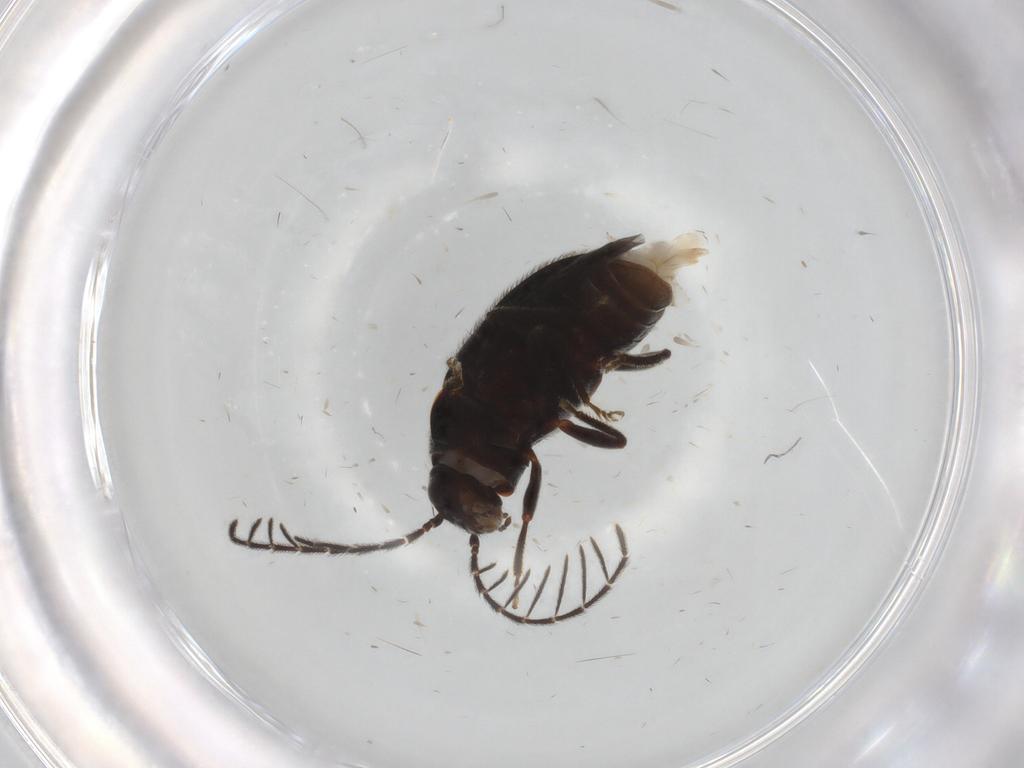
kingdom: Animalia
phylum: Arthropoda
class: Insecta
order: Coleoptera
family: Ptilodactylidae
